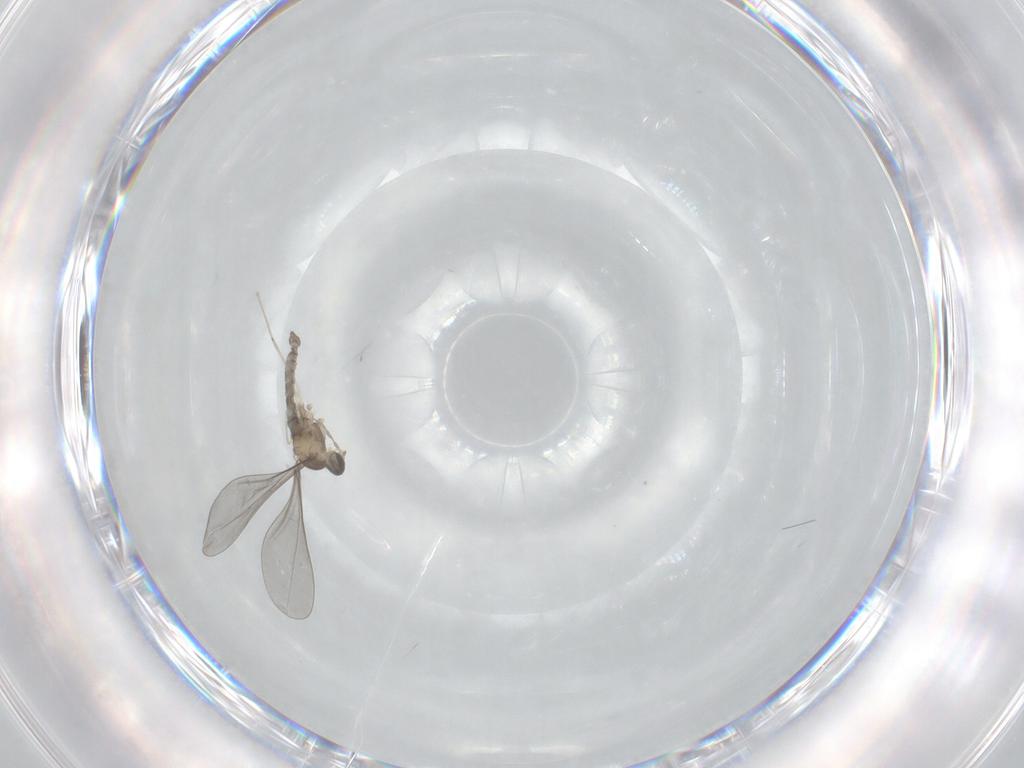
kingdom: Animalia
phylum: Arthropoda
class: Insecta
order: Diptera
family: Cecidomyiidae
